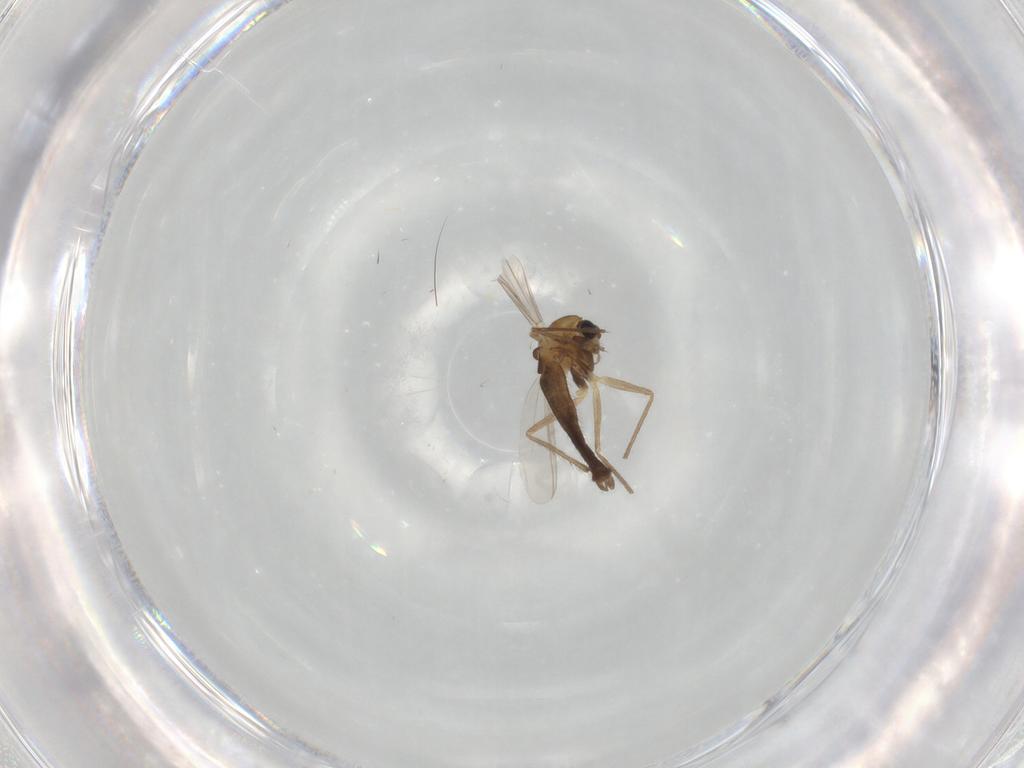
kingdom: Animalia
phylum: Arthropoda
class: Insecta
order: Diptera
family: Chironomidae
